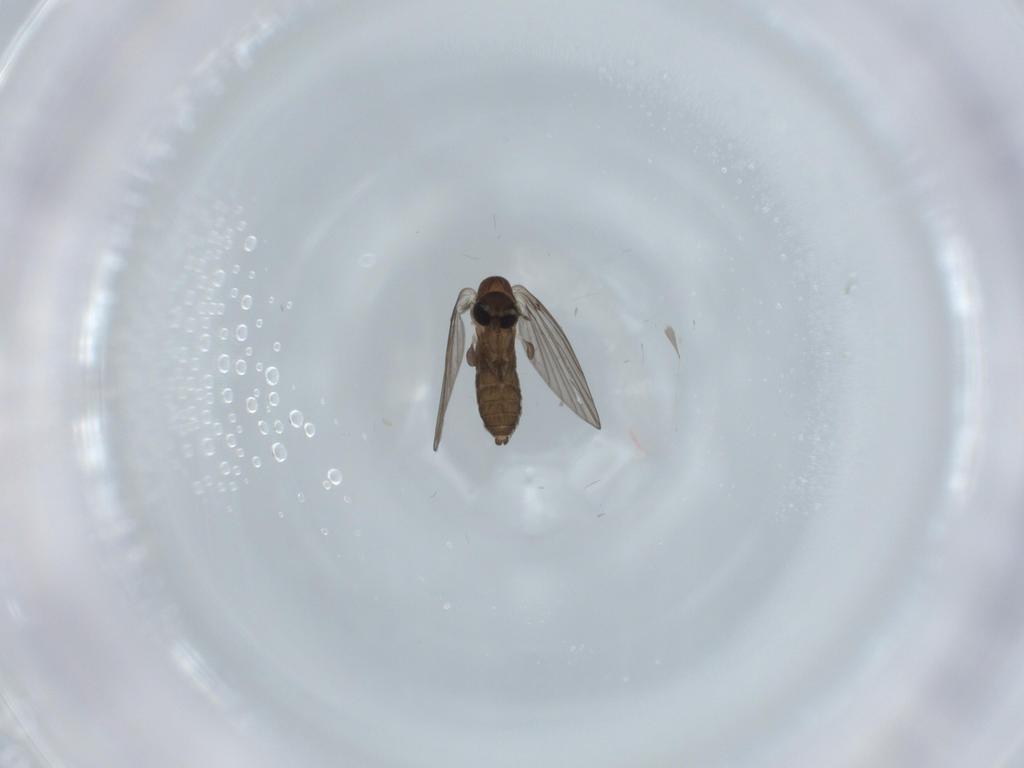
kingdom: Animalia
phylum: Arthropoda
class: Insecta
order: Diptera
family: Psychodidae
